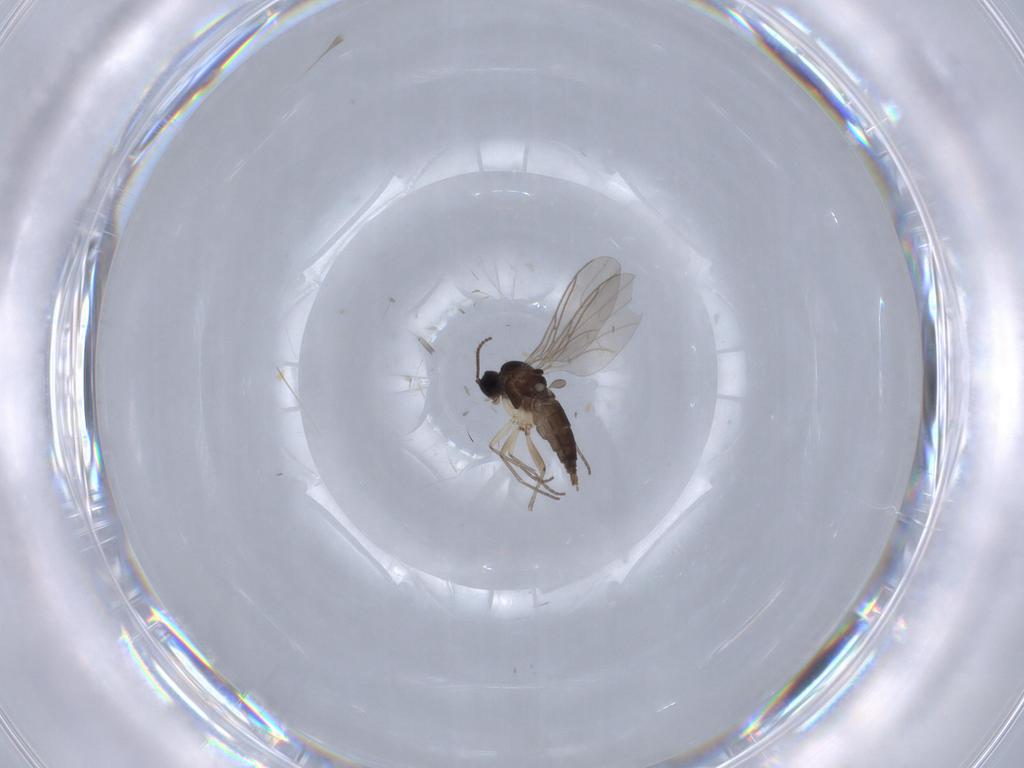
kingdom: Animalia
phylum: Arthropoda
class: Insecta
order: Diptera
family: Sciaridae
